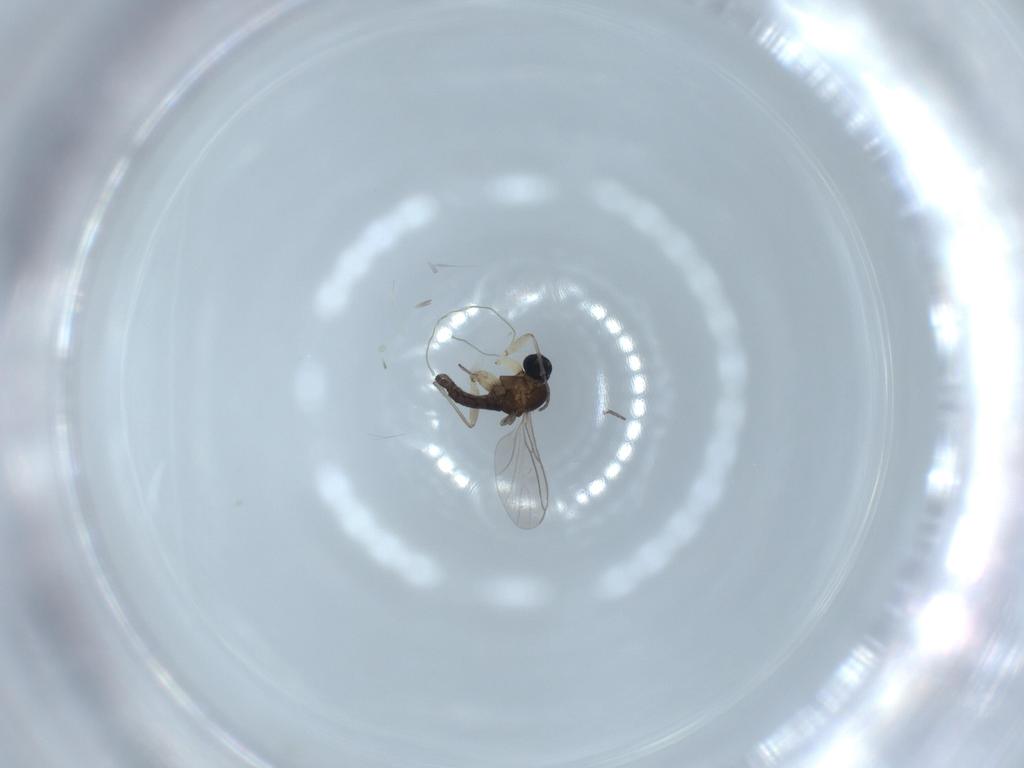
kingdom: Animalia
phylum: Arthropoda
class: Insecta
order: Diptera
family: Sciaridae
